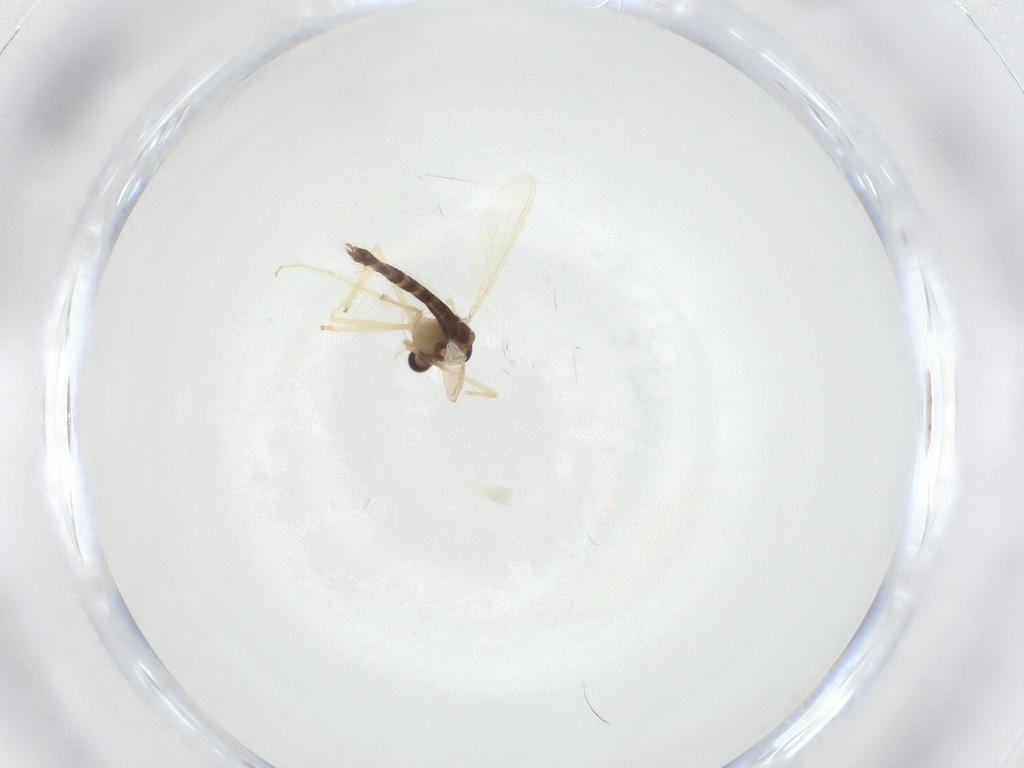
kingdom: Animalia
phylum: Arthropoda
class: Insecta
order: Diptera
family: Chironomidae
